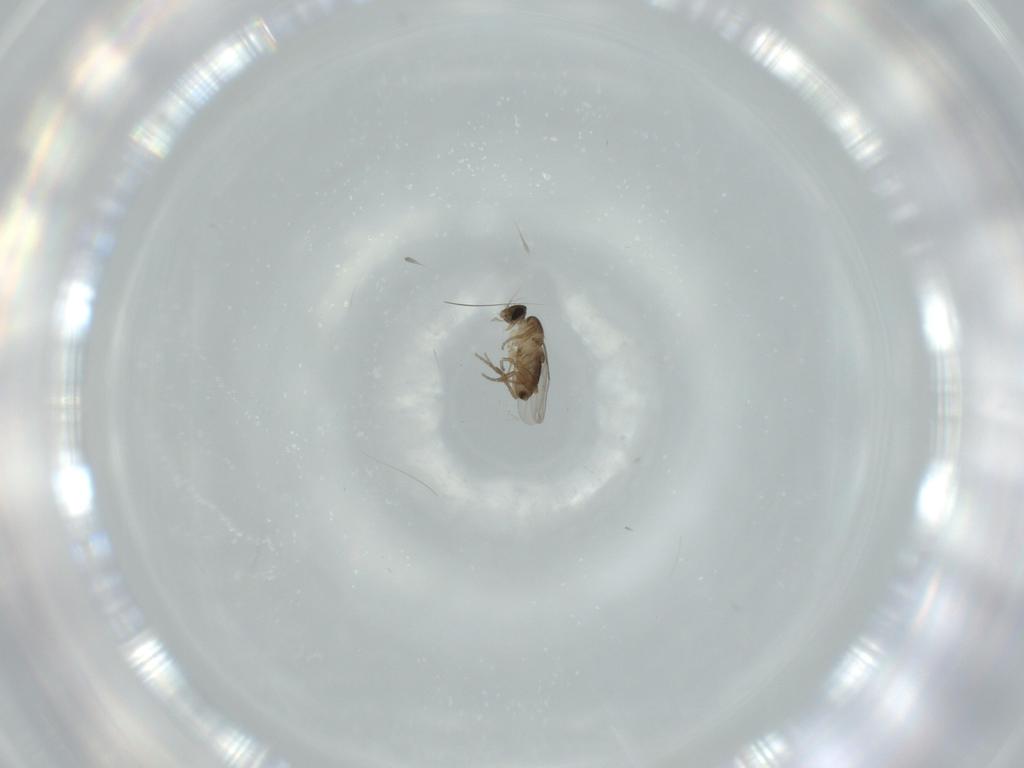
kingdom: Animalia
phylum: Arthropoda
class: Insecta
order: Diptera
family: Phoridae
